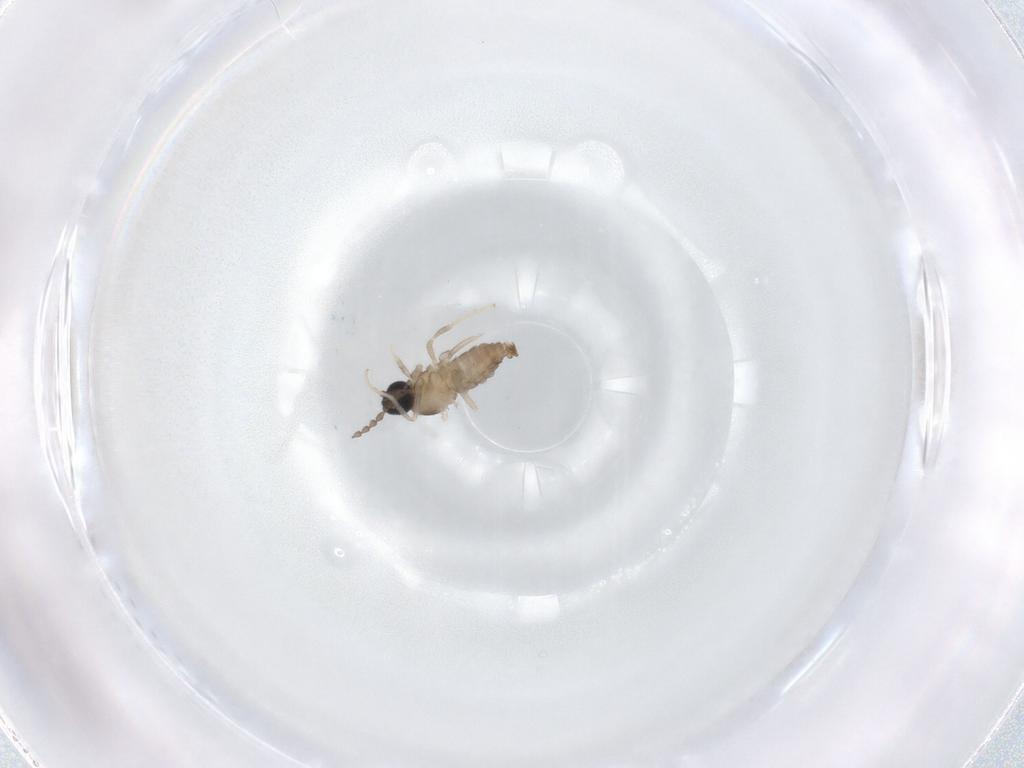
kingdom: Animalia
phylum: Arthropoda
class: Insecta
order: Diptera
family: Cecidomyiidae
